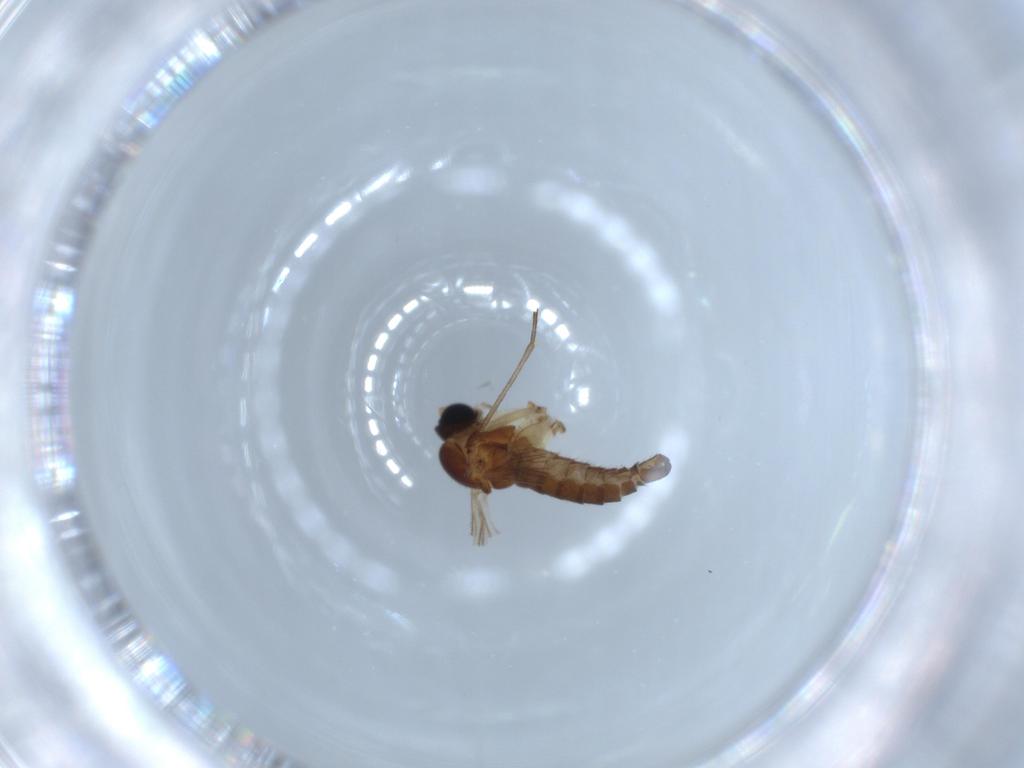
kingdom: Animalia
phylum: Arthropoda
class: Insecta
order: Diptera
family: Sciaridae
